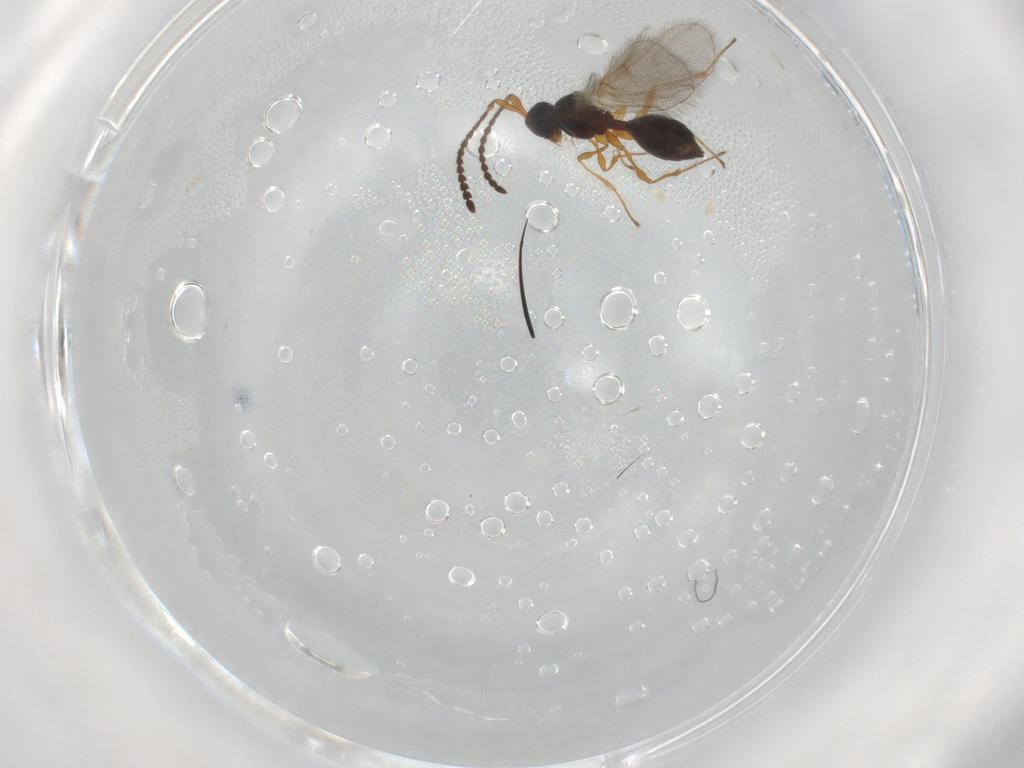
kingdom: Animalia
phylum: Arthropoda
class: Insecta
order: Hymenoptera
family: Diapriidae
